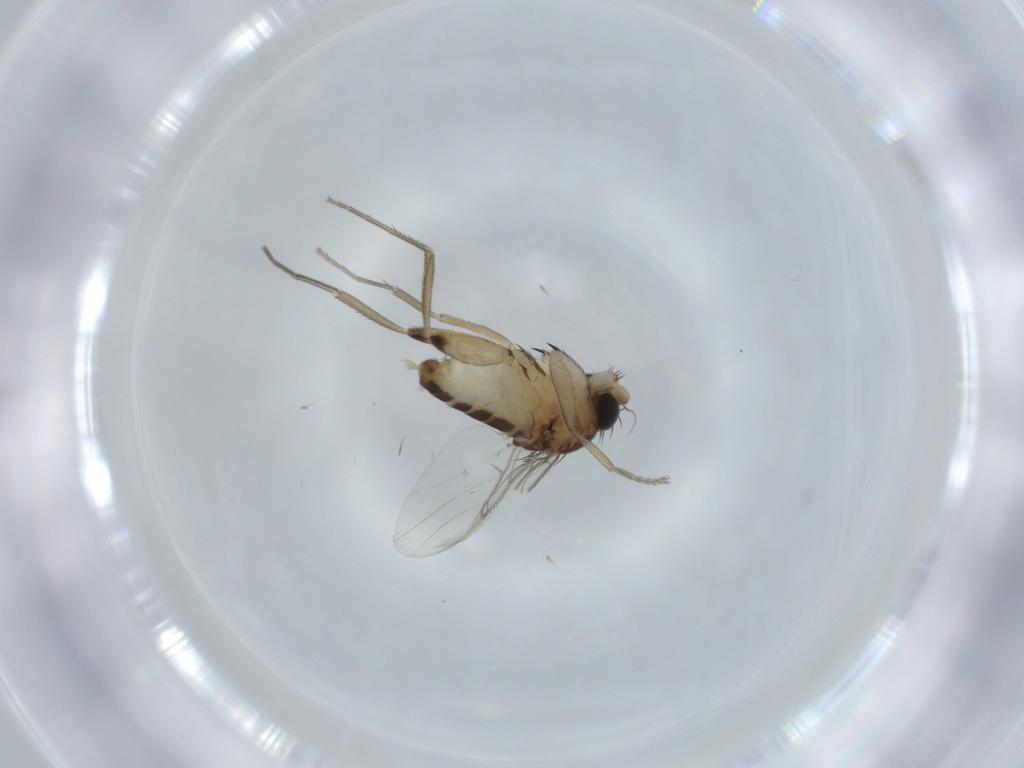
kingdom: Animalia
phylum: Arthropoda
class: Insecta
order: Diptera
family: Phoridae
